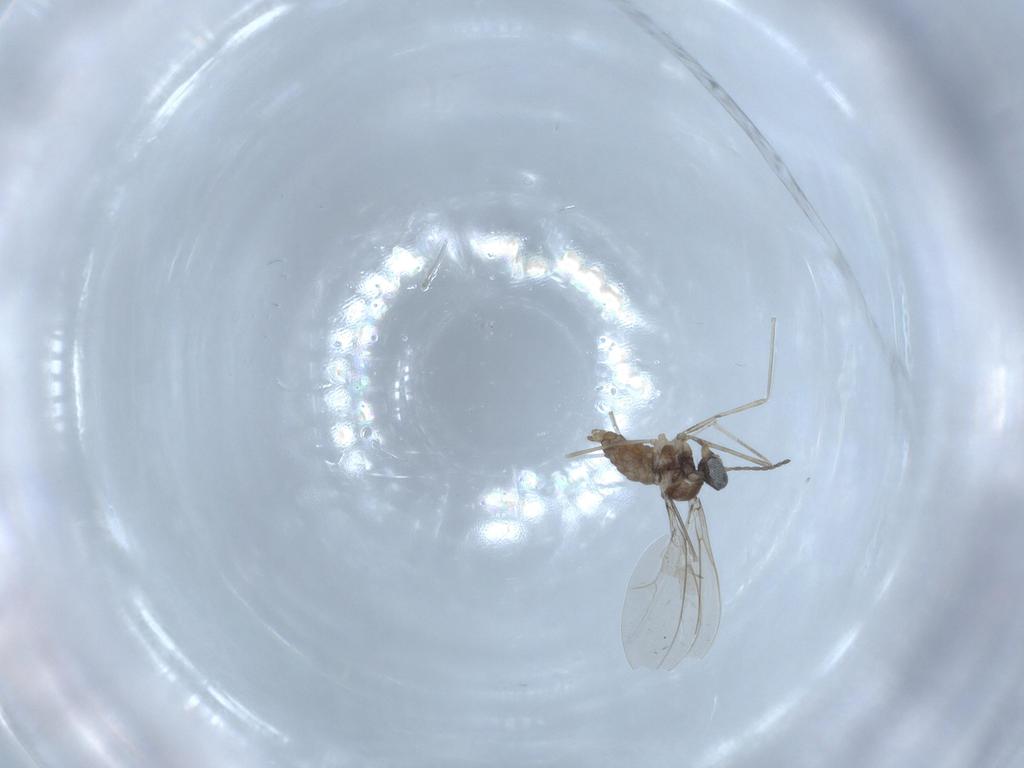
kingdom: Animalia
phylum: Arthropoda
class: Insecta
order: Diptera
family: Cecidomyiidae
